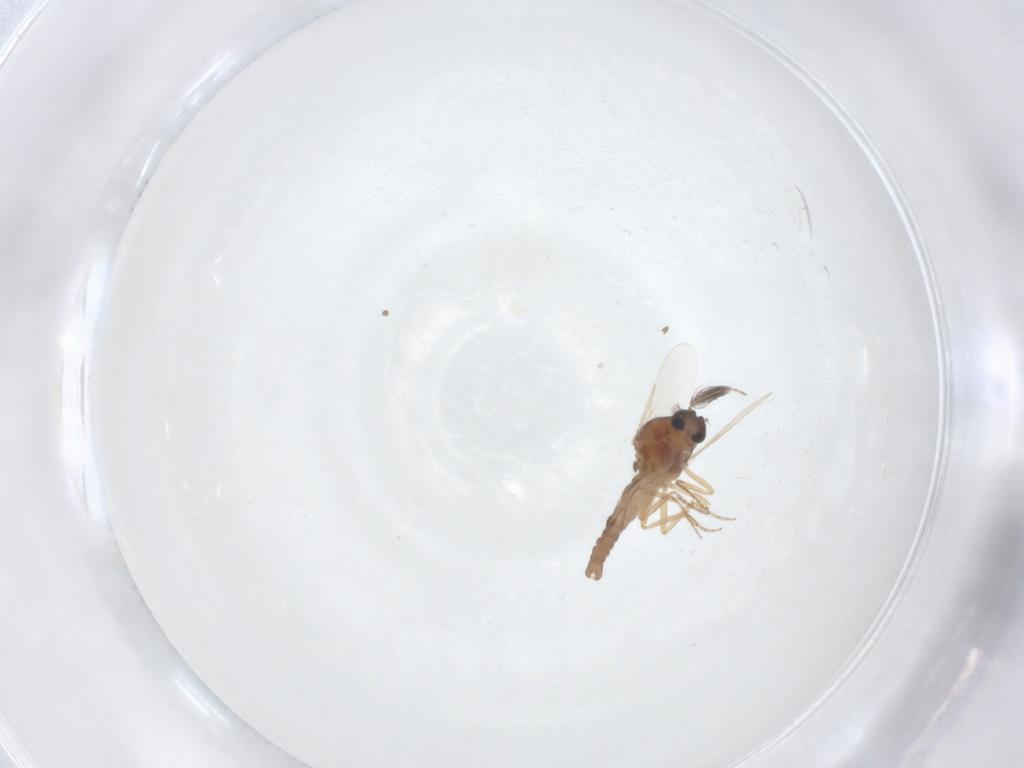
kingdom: Animalia
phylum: Arthropoda
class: Insecta
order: Diptera
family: Ceratopogonidae
